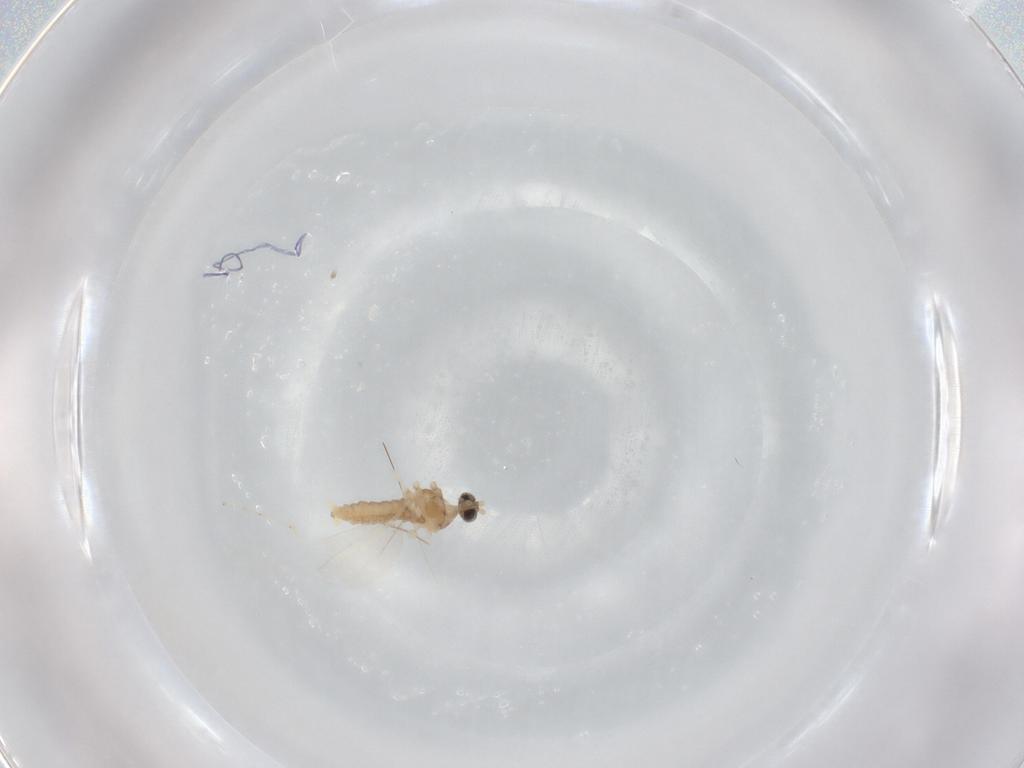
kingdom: Animalia
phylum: Arthropoda
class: Insecta
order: Diptera
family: Cecidomyiidae
